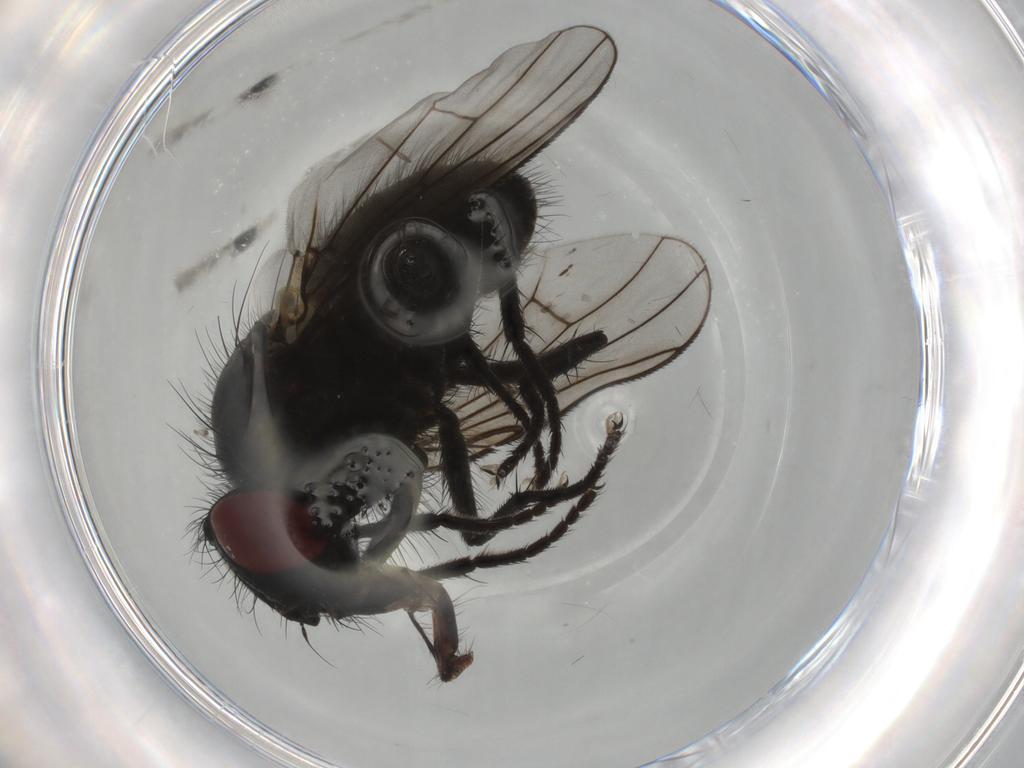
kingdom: Animalia
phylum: Arthropoda
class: Insecta
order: Diptera
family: Muscidae
